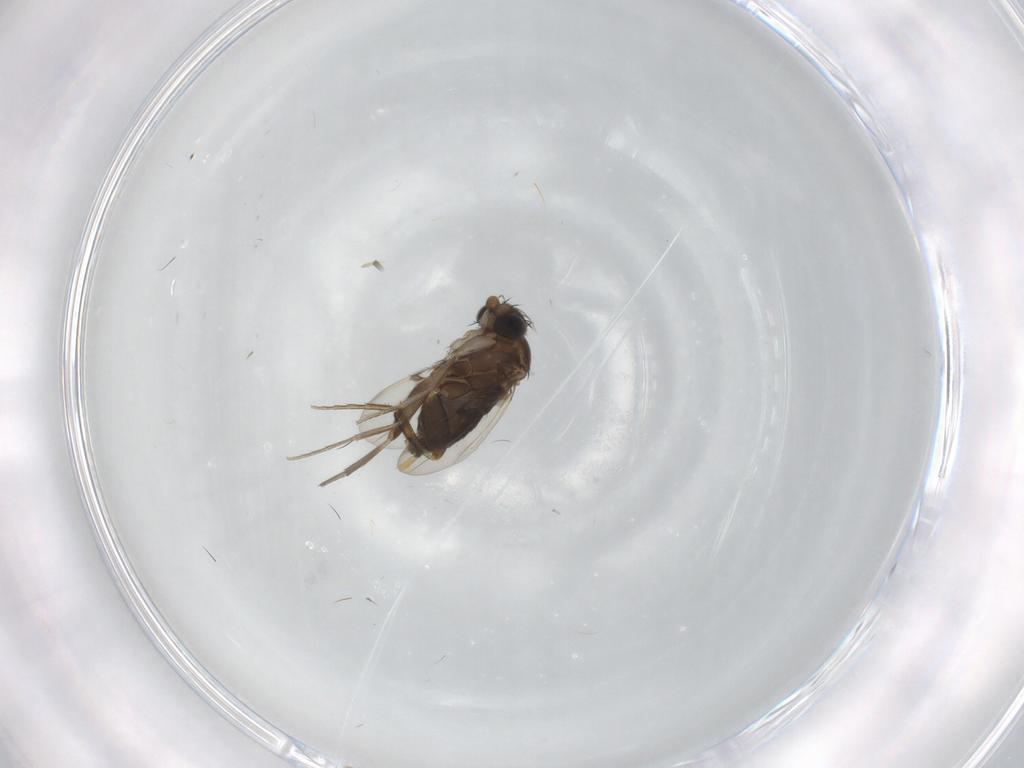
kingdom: Animalia
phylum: Arthropoda
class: Insecta
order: Diptera
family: Phoridae
